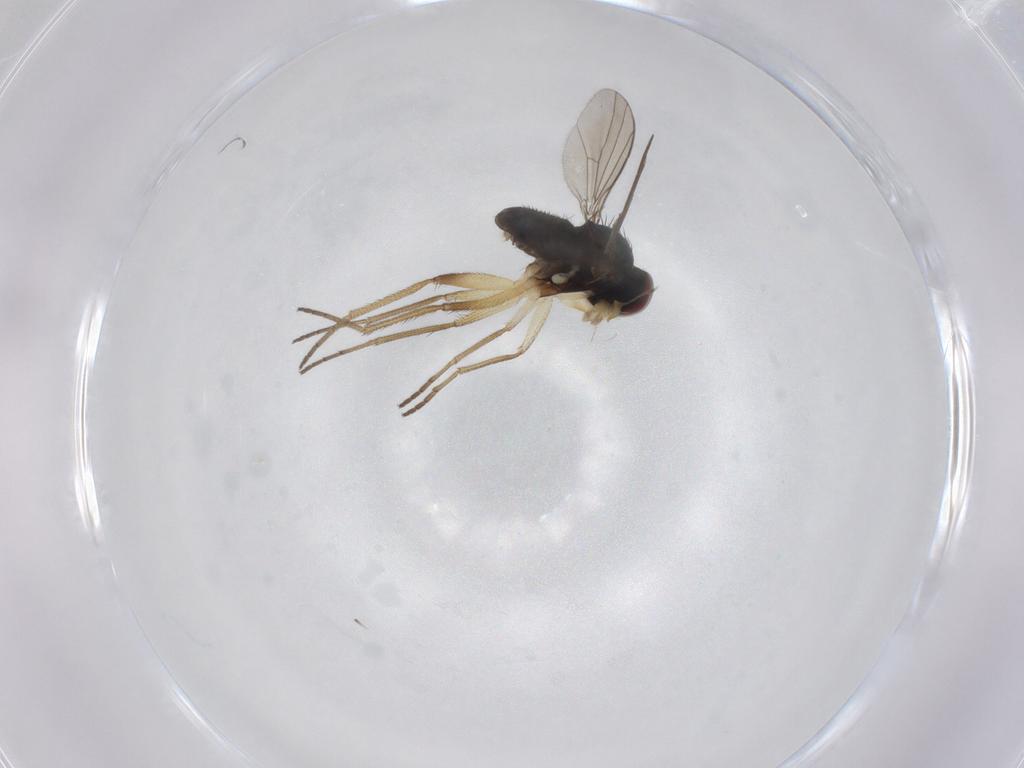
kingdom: Animalia
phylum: Arthropoda
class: Insecta
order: Diptera
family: Dolichopodidae
